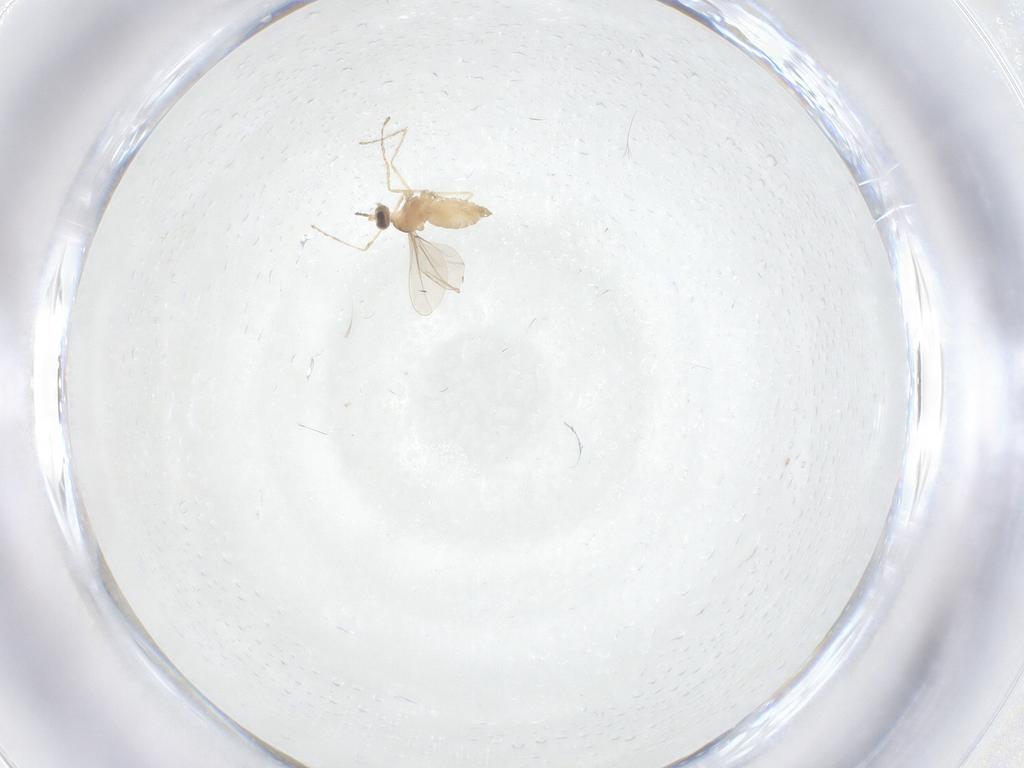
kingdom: Animalia
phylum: Arthropoda
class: Insecta
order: Diptera
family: Cecidomyiidae
